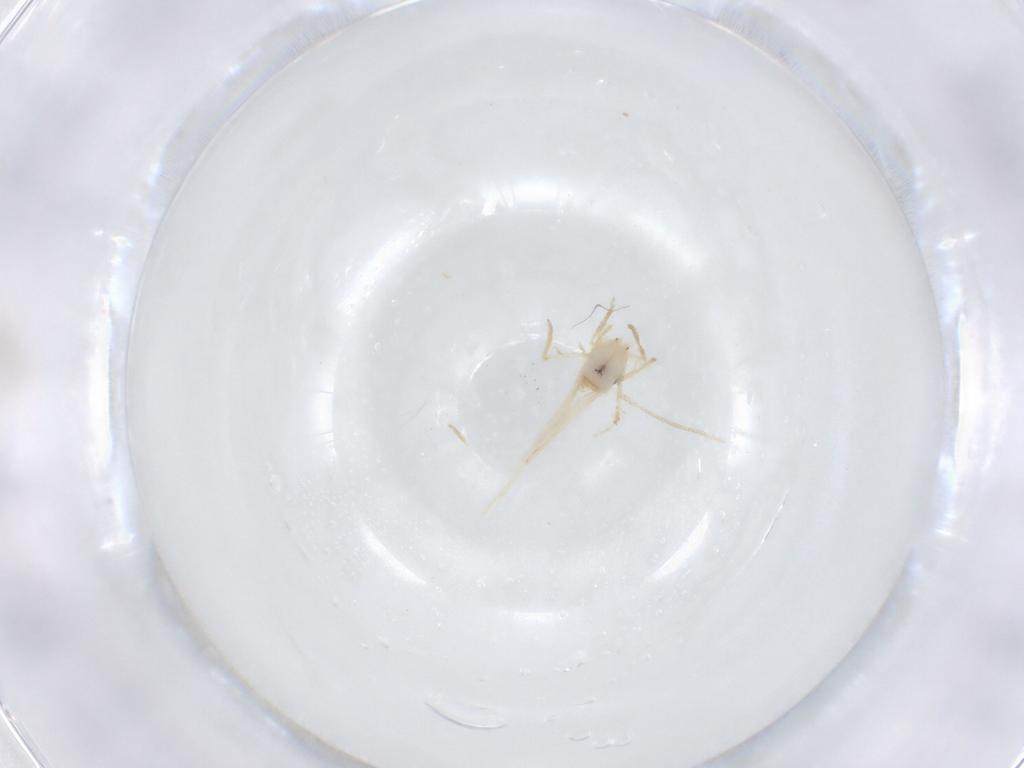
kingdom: Animalia
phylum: Arthropoda
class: Insecta
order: Lepidoptera
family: Nepticulidae
